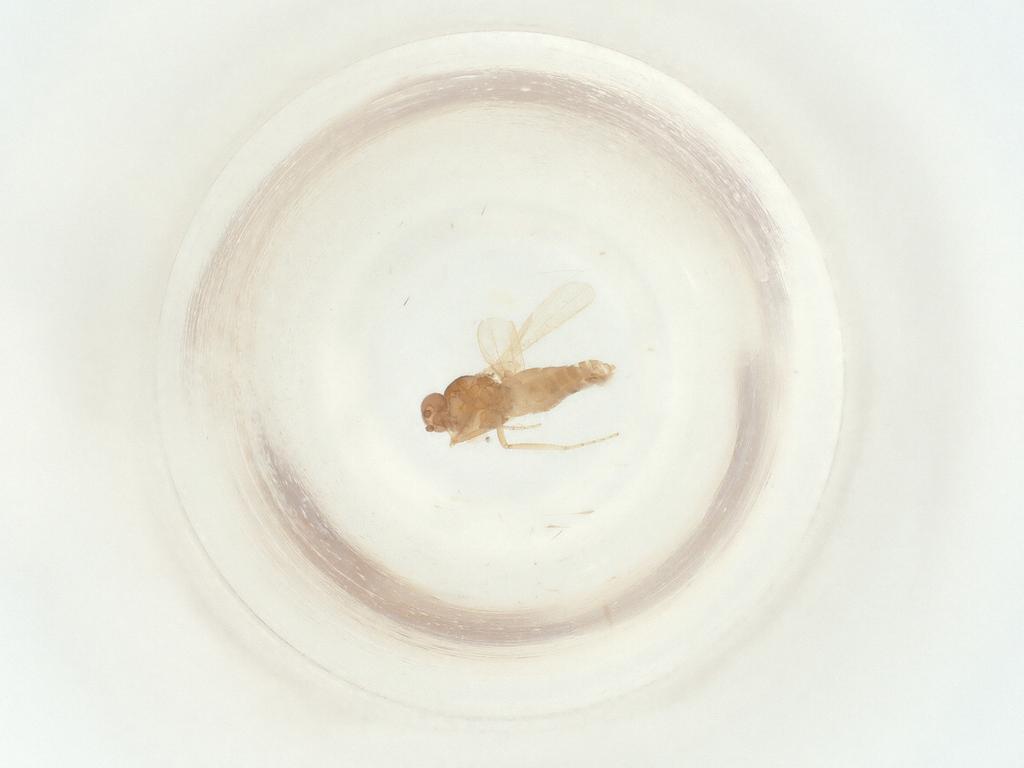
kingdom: Animalia
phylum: Arthropoda
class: Insecta
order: Diptera
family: Ceratopogonidae
